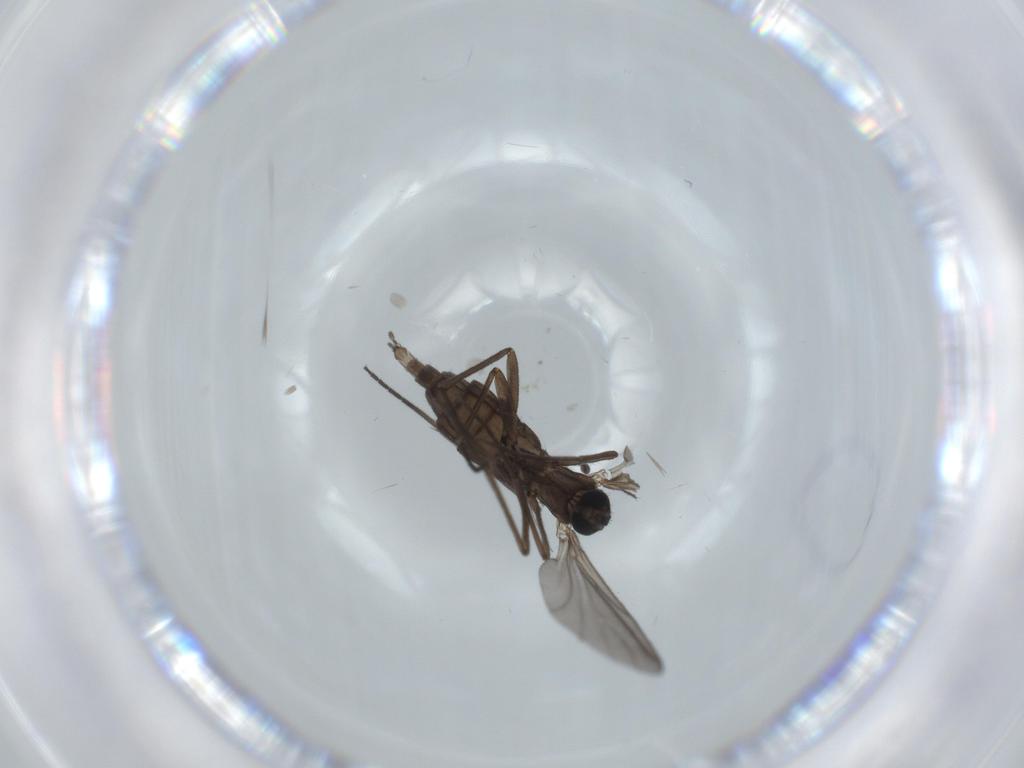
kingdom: Animalia
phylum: Arthropoda
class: Insecta
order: Diptera
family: Sciaridae
